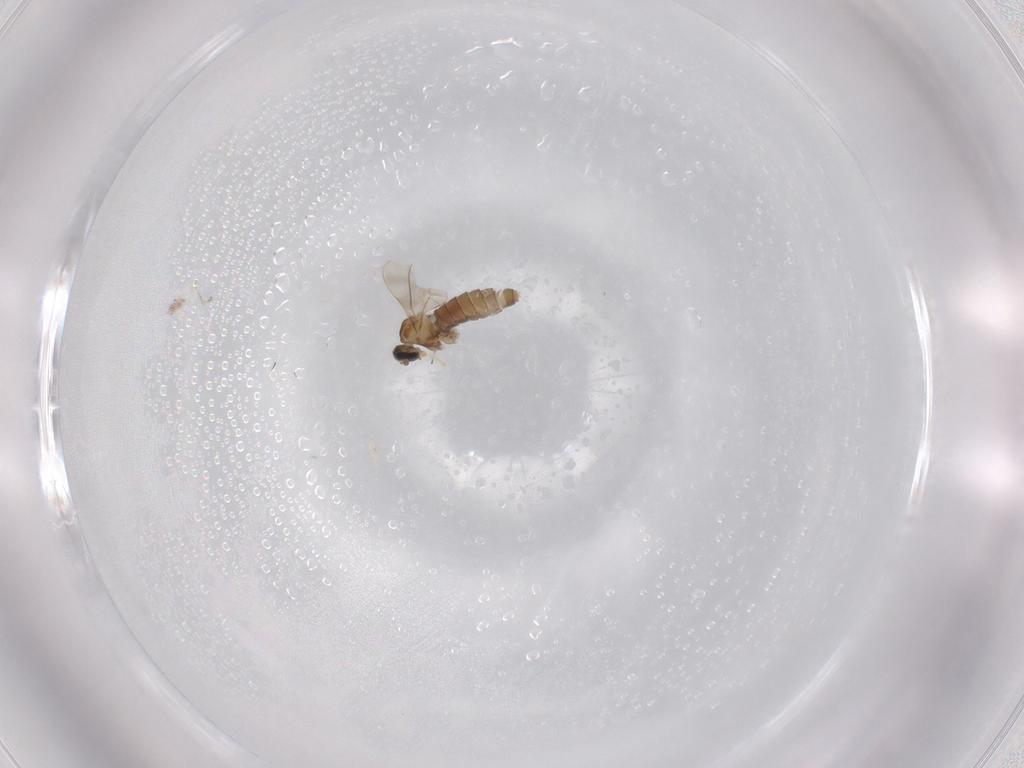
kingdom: Animalia
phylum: Arthropoda
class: Insecta
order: Diptera
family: Cecidomyiidae
